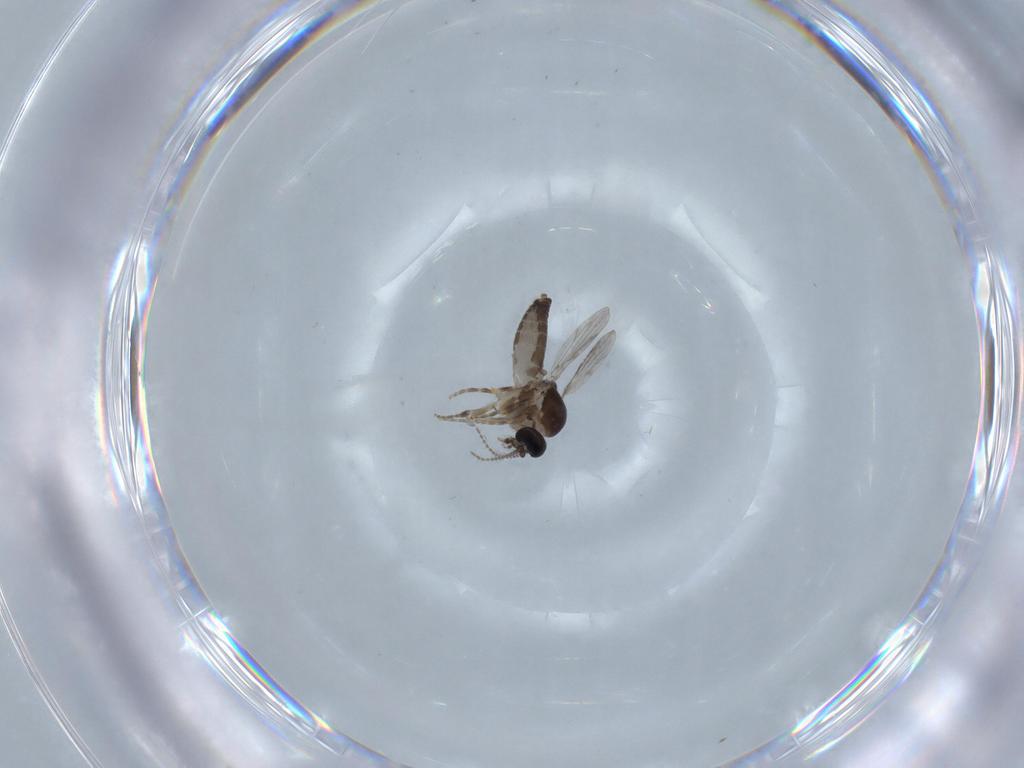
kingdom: Animalia
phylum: Arthropoda
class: Insecta
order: Diptera
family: Ceratopogonidae
